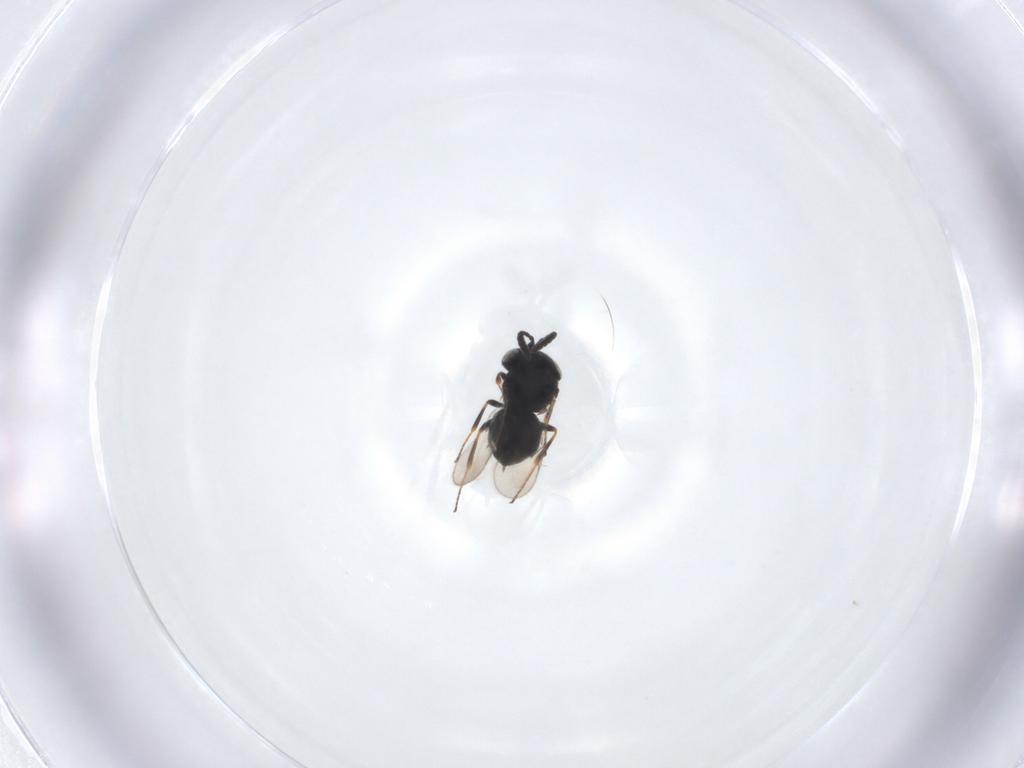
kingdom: Animalia
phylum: Arthropoda
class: Insecta
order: Hymenoptera
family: Scelionidae
